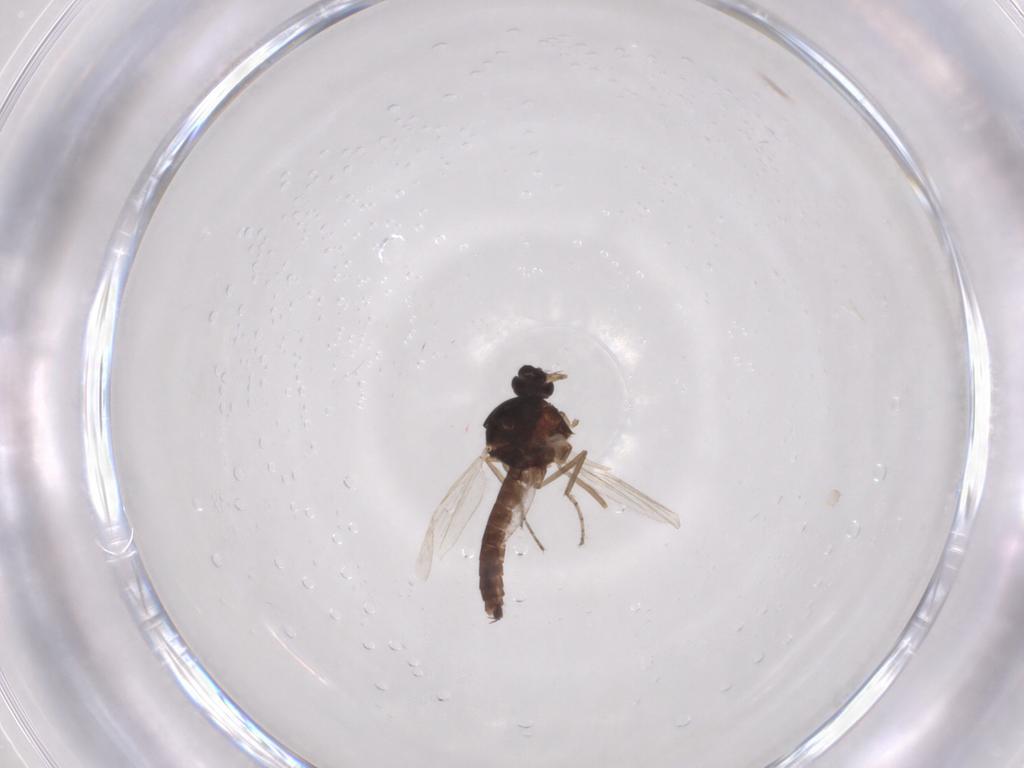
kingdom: Animalia
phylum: Arthropoda
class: Insecta
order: Diptera
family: Ceratopogonidae
